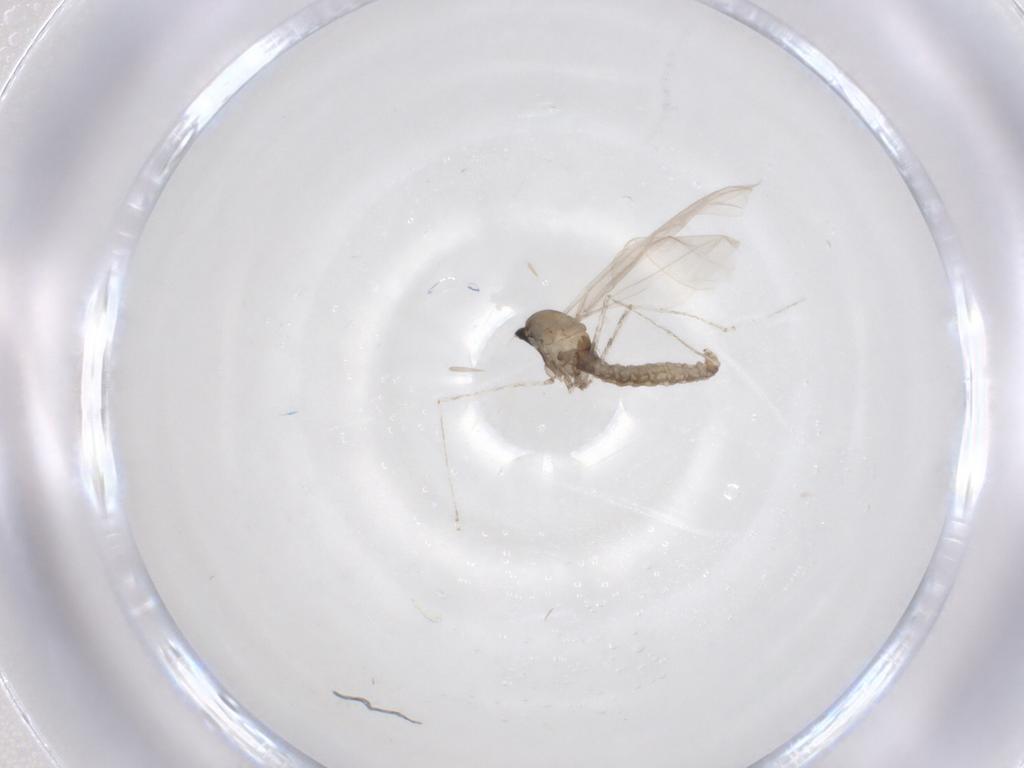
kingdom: Animalia
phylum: Arthropoda
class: Insecta
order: Diptera
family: Cecidomyiidae
